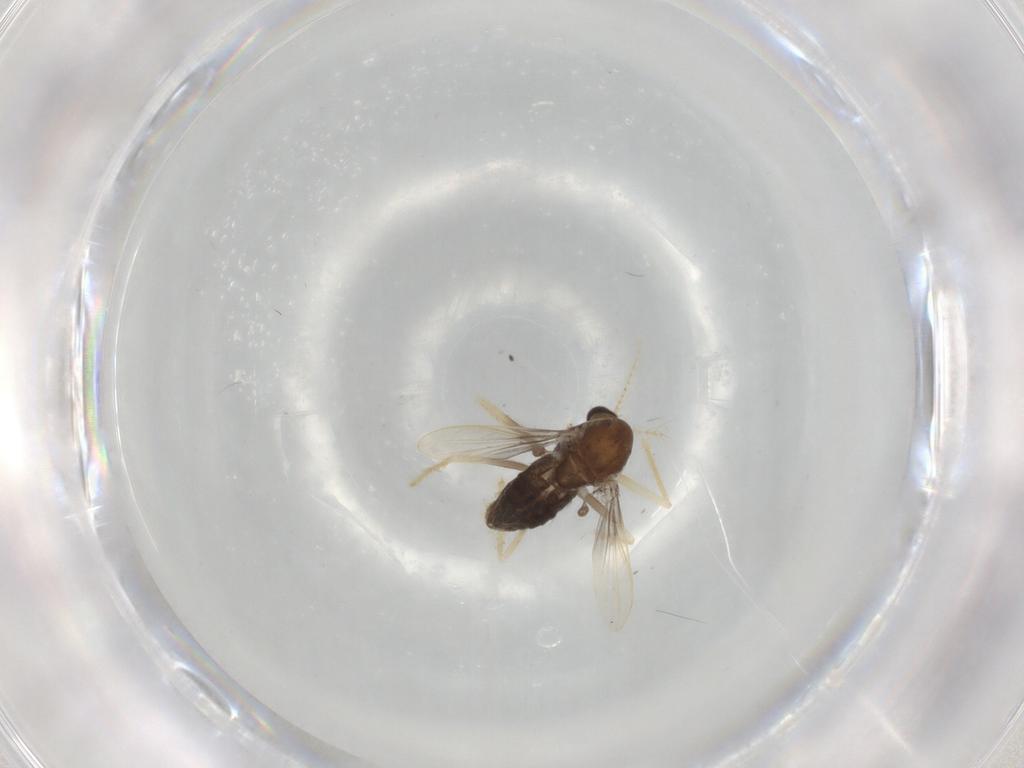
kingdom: Animalia
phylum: Arthropoda
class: Insecta
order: Diptera
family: Chironomidae
